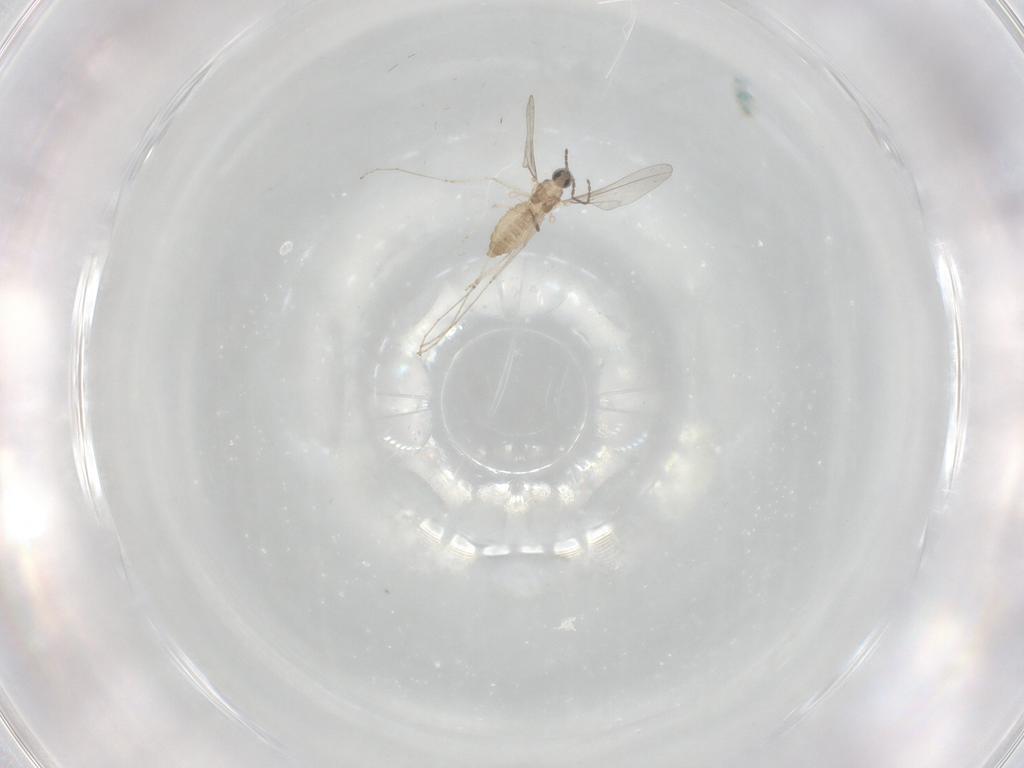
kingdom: Animalia
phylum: Arthropoda
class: Insecta
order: Diptera
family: Cecidomyiidae
